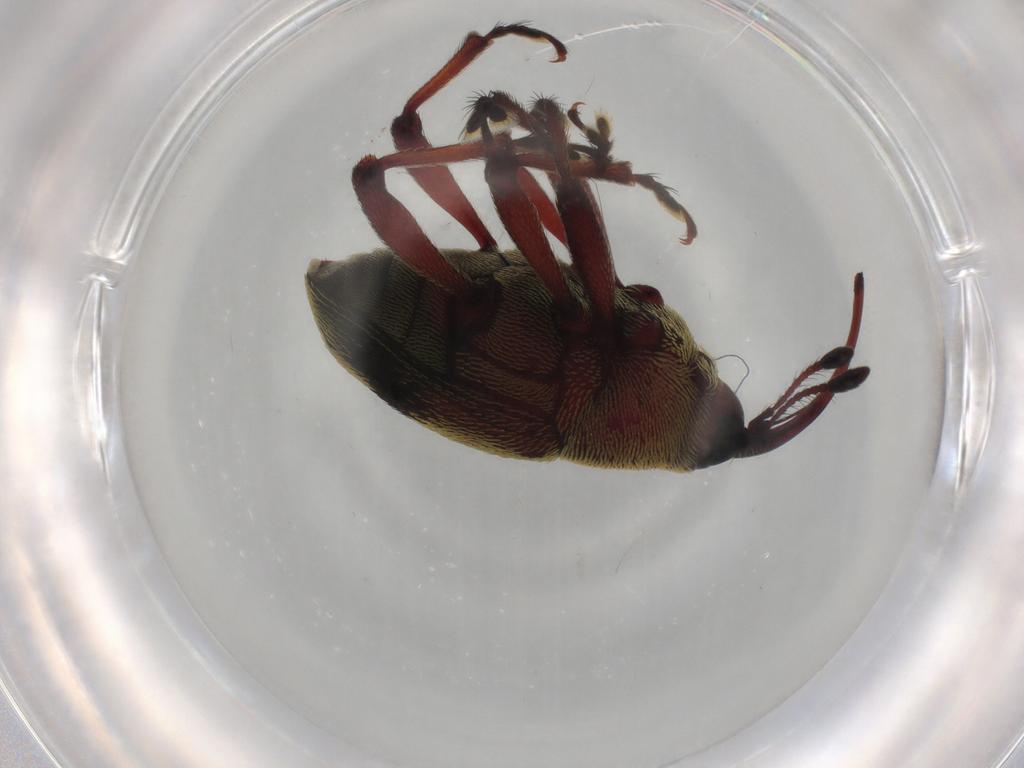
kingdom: Animalia
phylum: Arthropoda
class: Insecta
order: Coleoptera
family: Curculionidae
